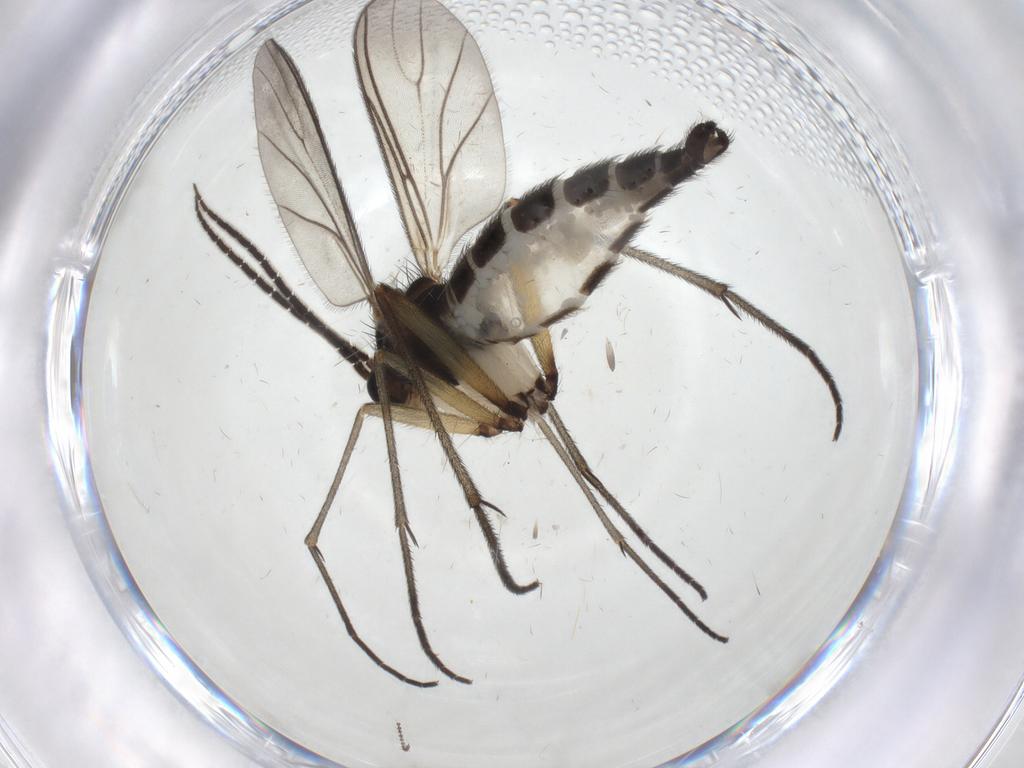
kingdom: Animalia
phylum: Arthropoda
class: Insecta
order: Diptera
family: Sciaridae
